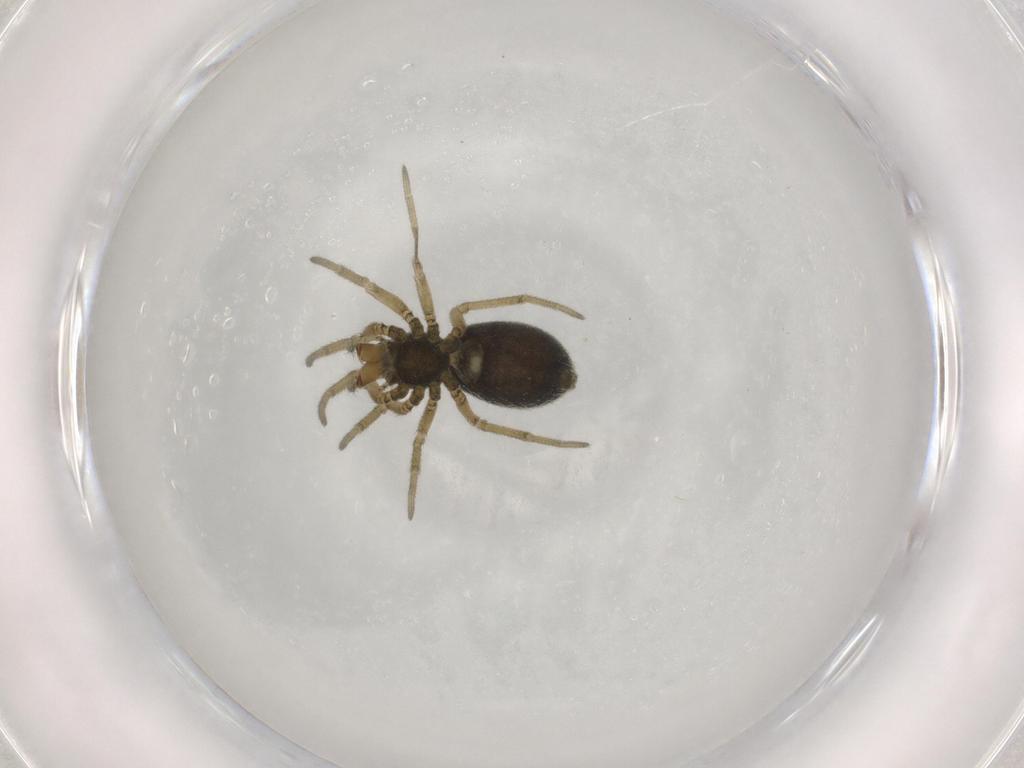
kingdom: Animalia
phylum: Arthropoda
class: Arachnida
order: Araneae
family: Linyphiidae
